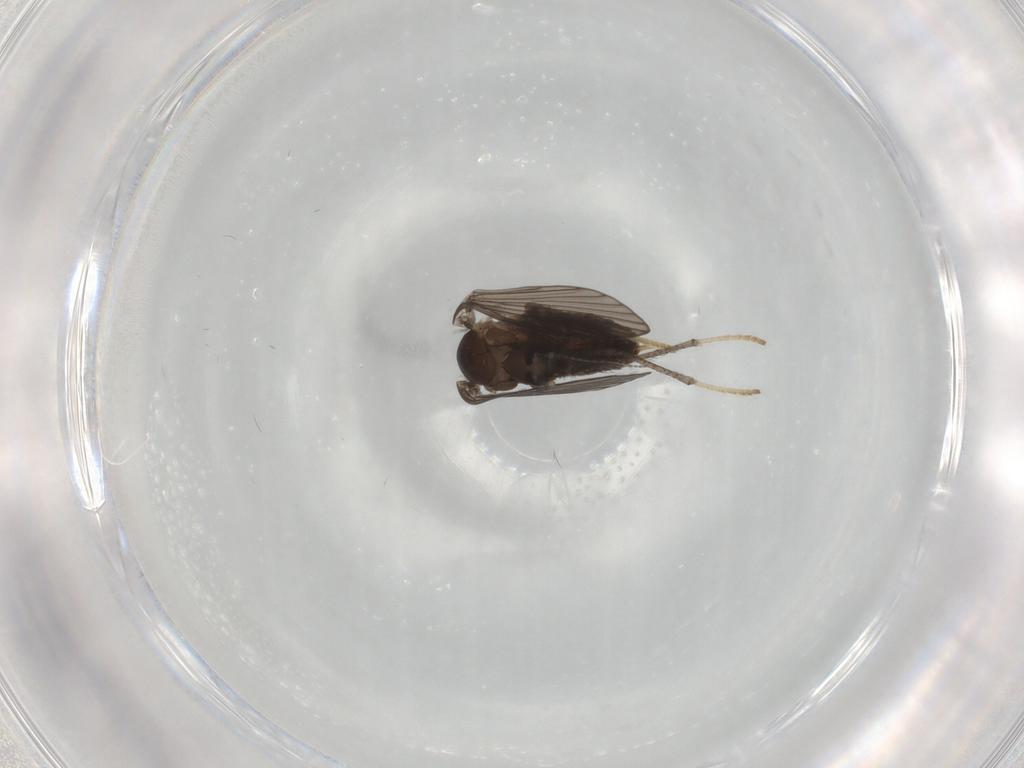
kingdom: Animalia
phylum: Arthropoda
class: Insecta
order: Diptera
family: Psychodidae
